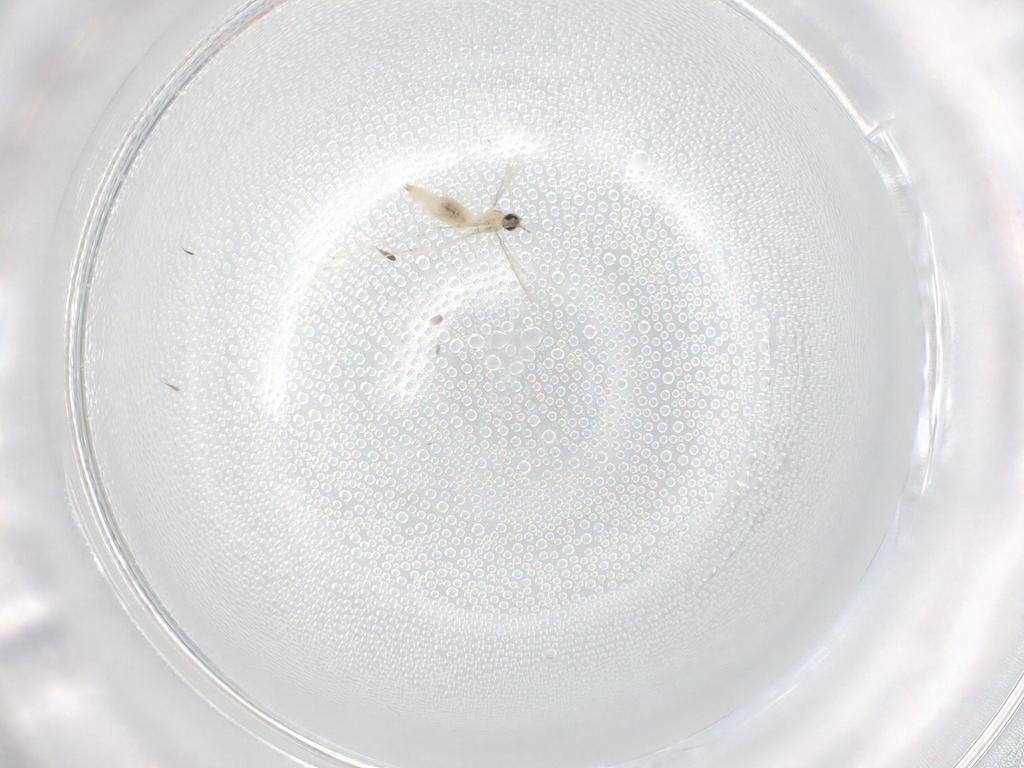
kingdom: Animalia
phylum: Arthropoda
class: Insecta
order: Diptera
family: Cecidomyiidae
